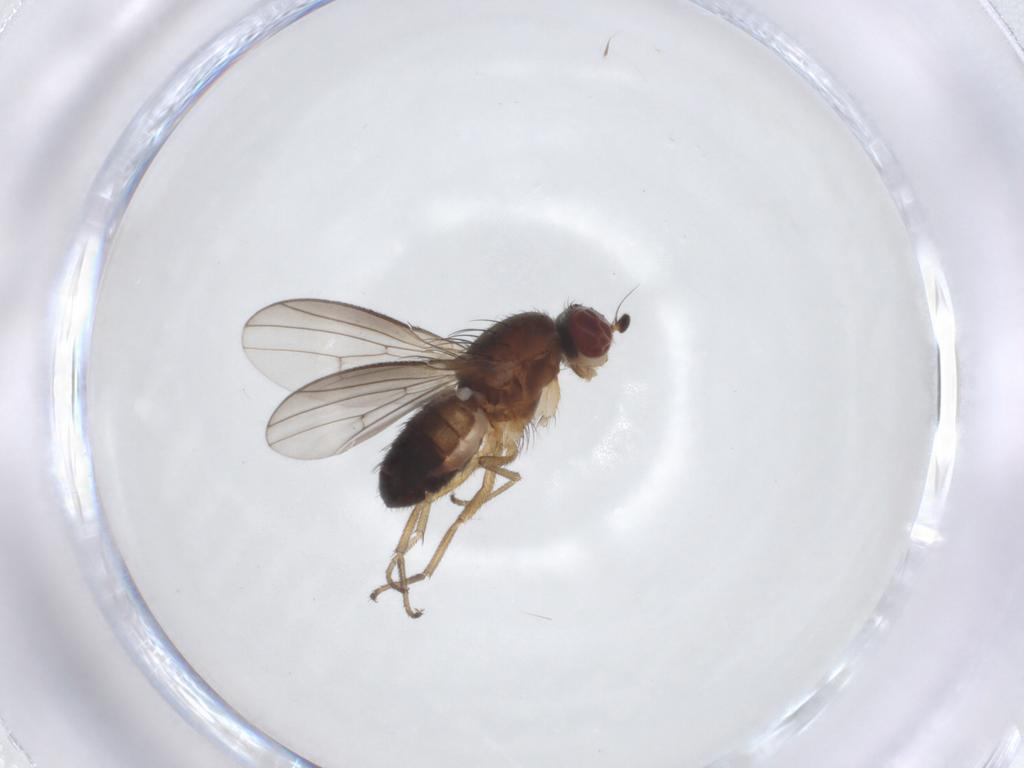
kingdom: Animalia
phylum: Arthropoda
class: Insecta
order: Diptera
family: Heleomyzidae
